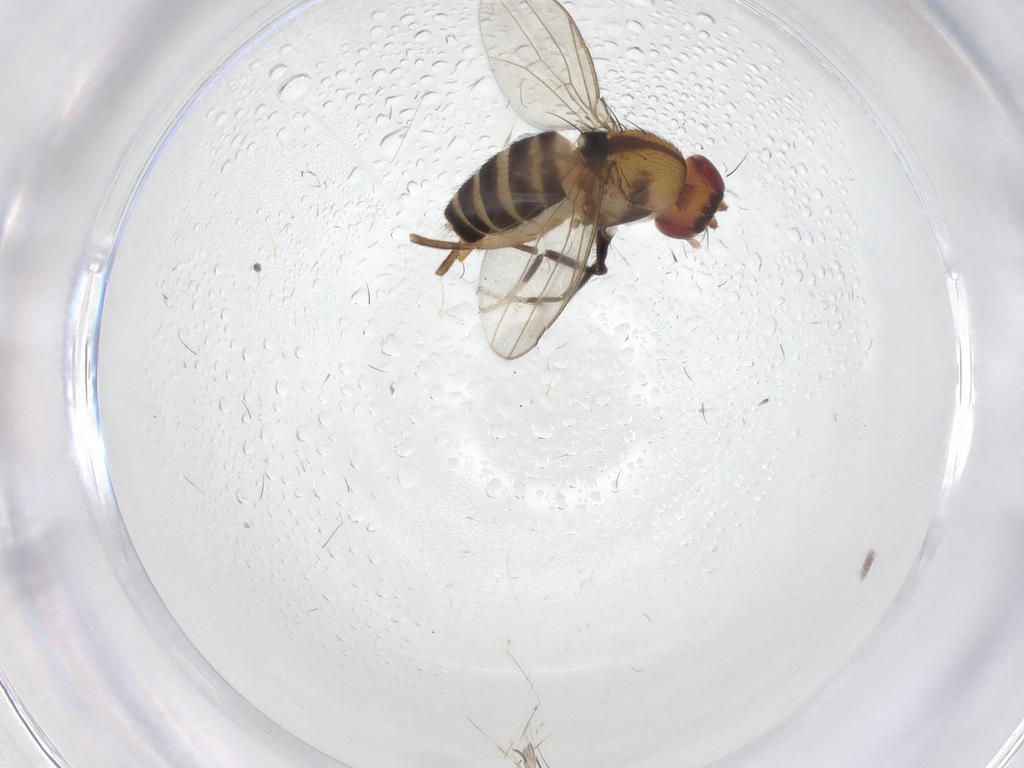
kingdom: Animalia
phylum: Arthropoda
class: Insecta
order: Diptera
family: Drosophilidae
